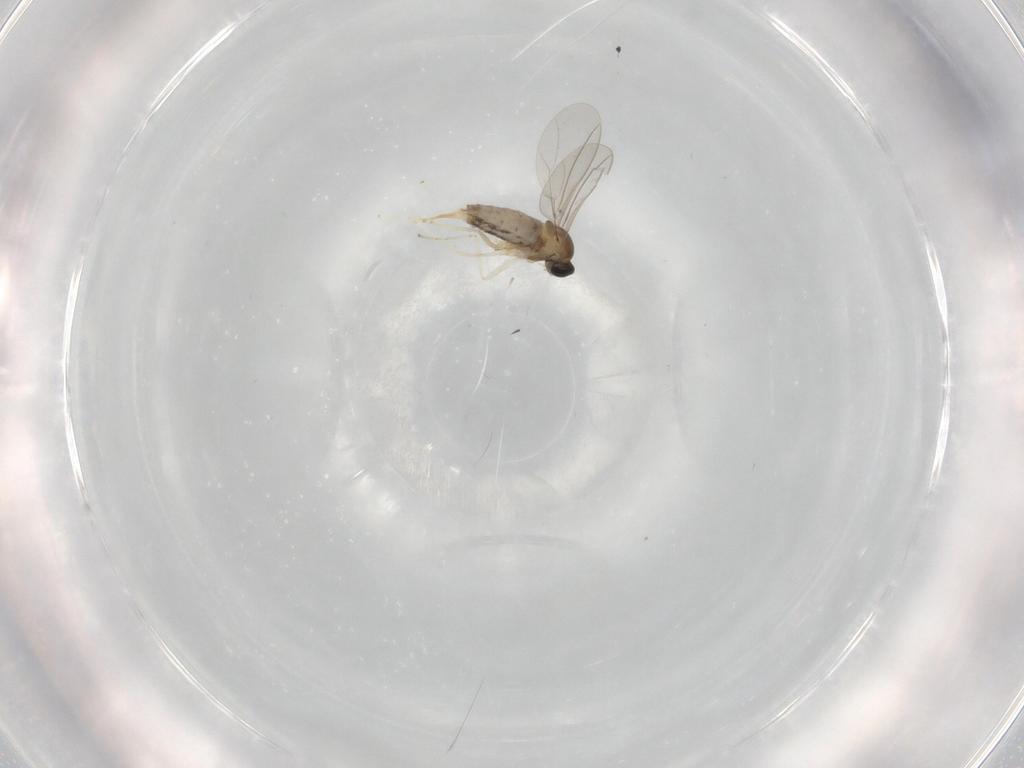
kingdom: Animalia
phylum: Arthropoda
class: Insecta
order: Diptera
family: Cecidomyiidae
